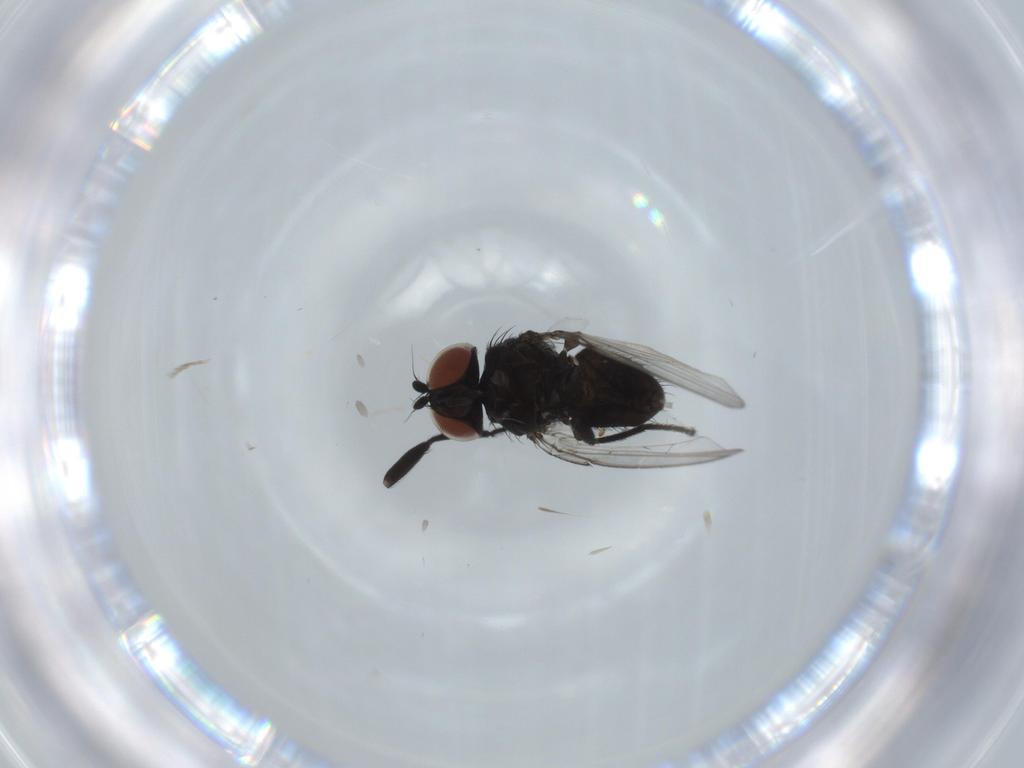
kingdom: Animalia
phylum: Arthropoda
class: Insecta
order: Diptera
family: Milichiidae
